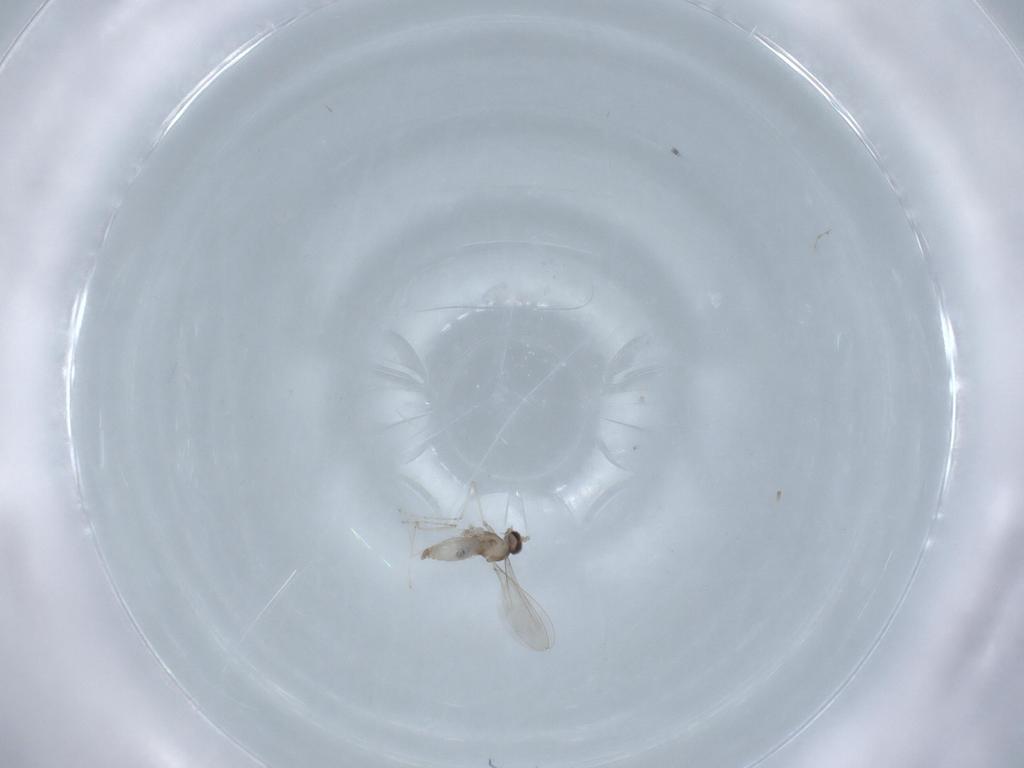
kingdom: Animalia
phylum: Arthropoda
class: Insecta
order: Diptera
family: Cecidomyiidae
